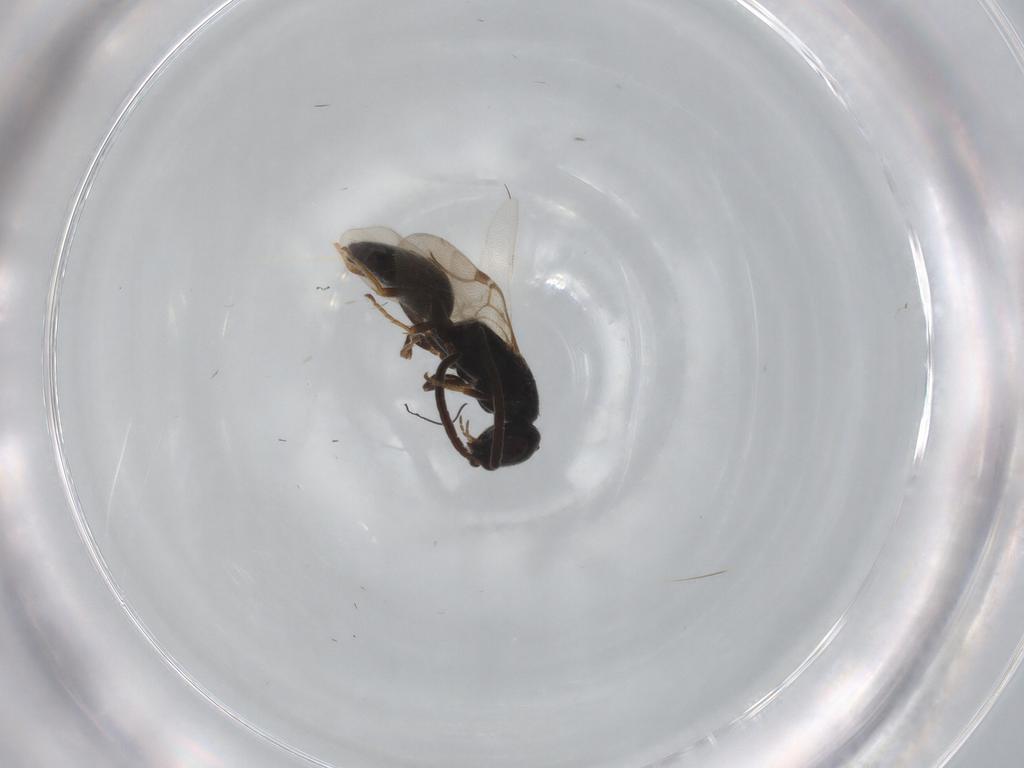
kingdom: Animalia
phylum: Arthropoda
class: Insecta
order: Hymenoptera
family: Bethylidae
